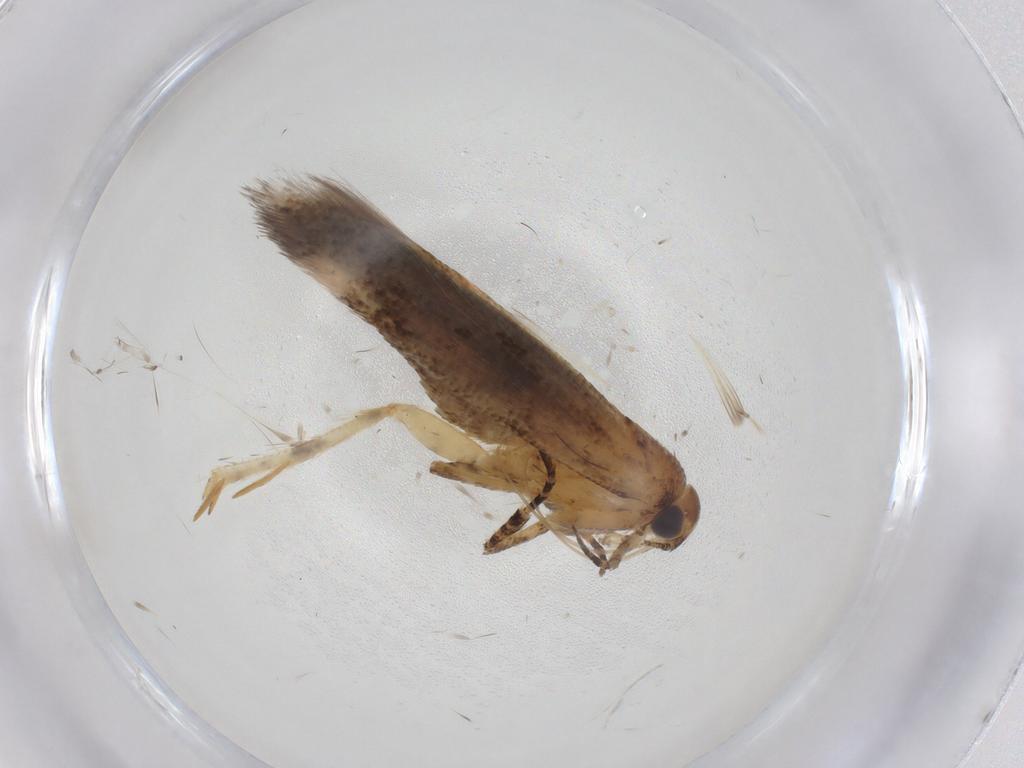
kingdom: Animalia
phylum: Arthropoda
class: Insecta
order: Lepidoptera
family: Gelechiidae
